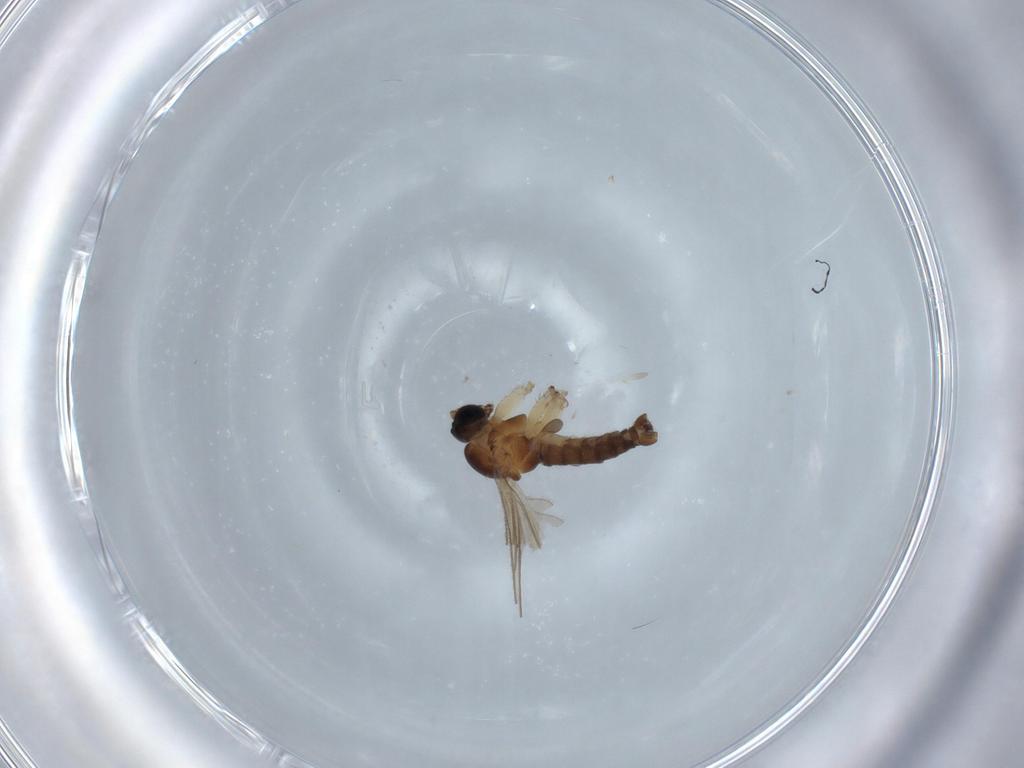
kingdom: Animalia
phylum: Arthropoda
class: Insecta
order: Diptera
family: Sciaridae
